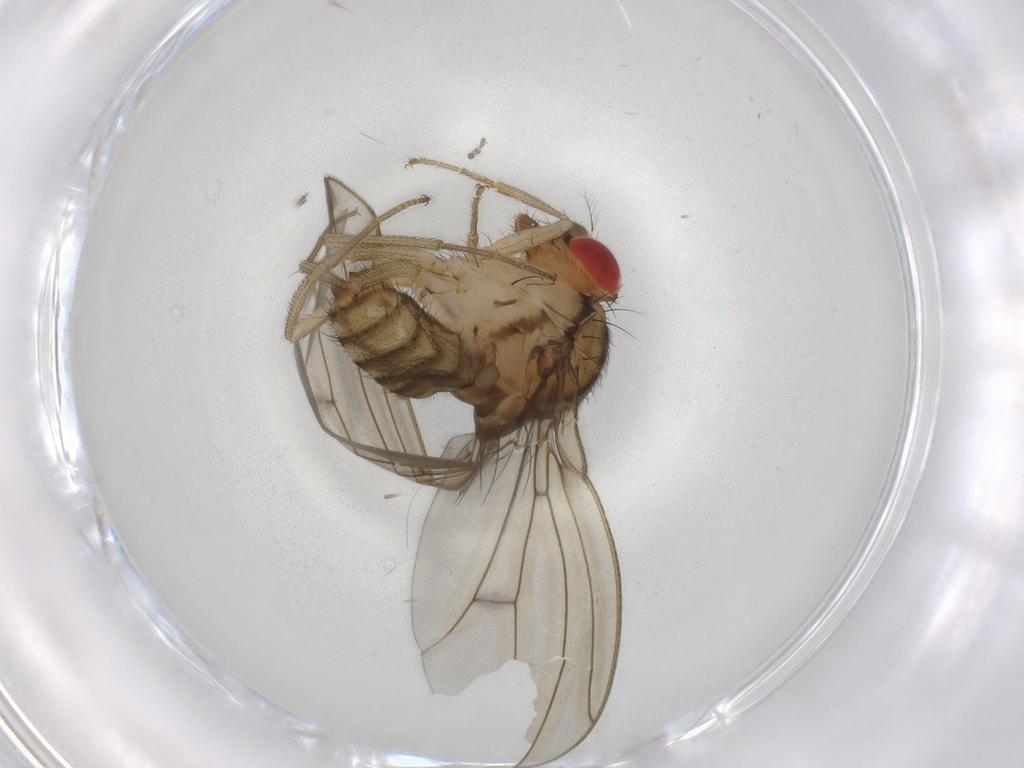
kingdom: Animalia
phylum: Arthropoda
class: Insecta
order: Diptera
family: Drosophilidae
